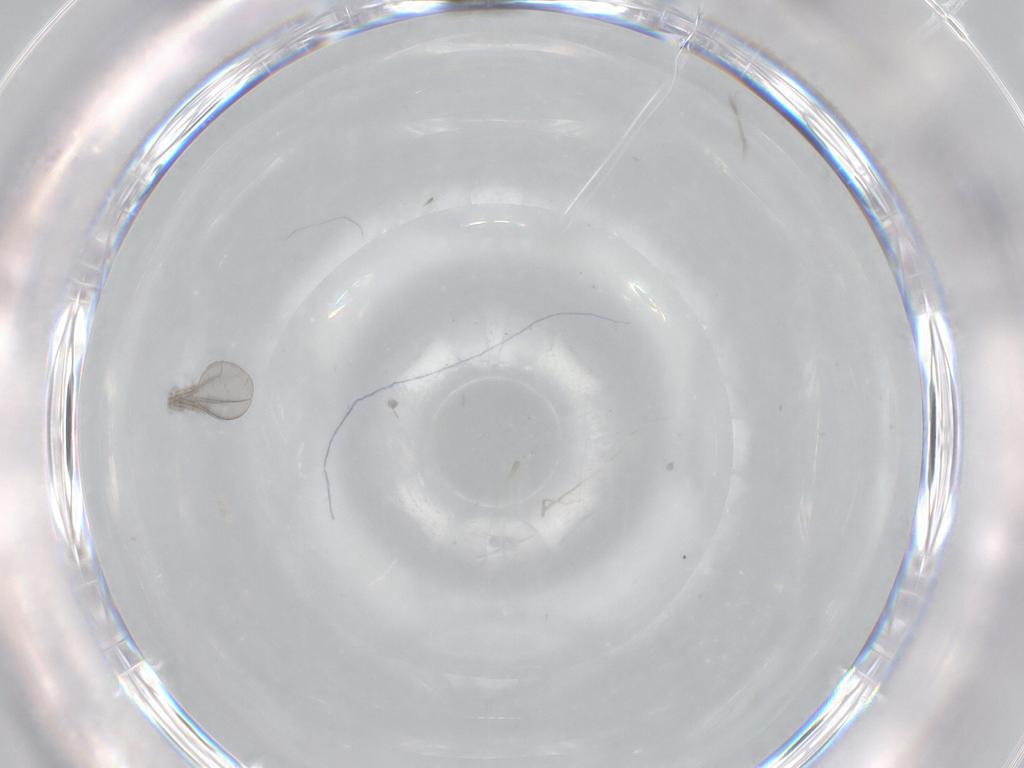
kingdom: Animalia
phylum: Arthropoda
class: Insecta
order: Diptera
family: Cecidomyiidae
